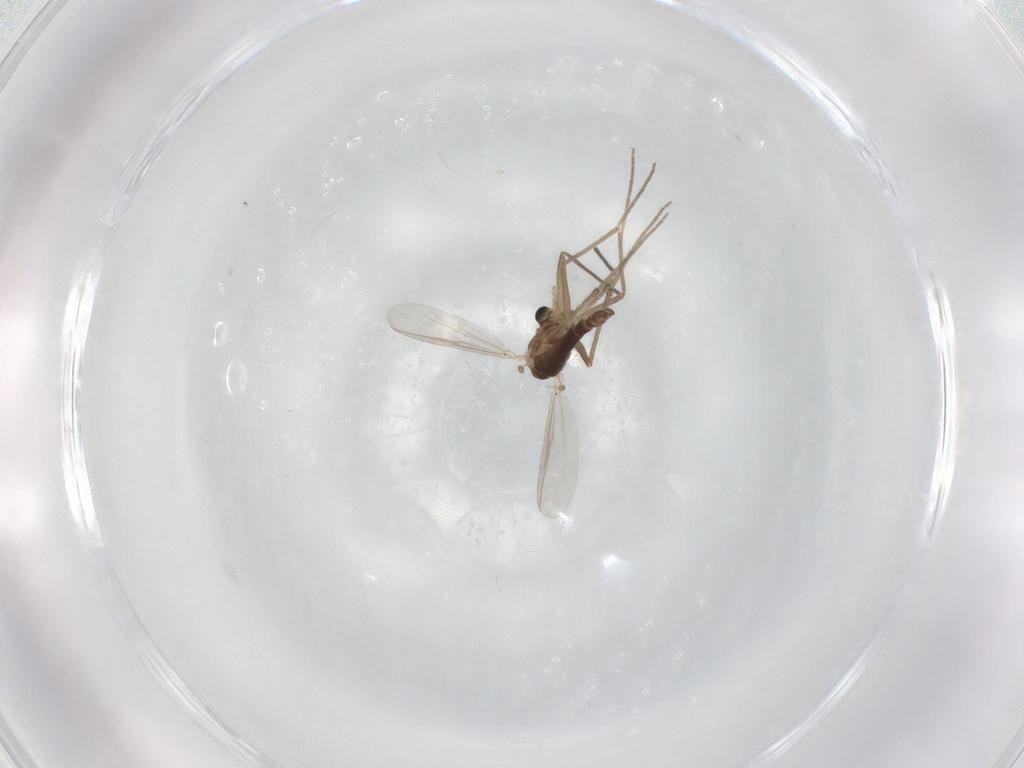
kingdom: Animalia
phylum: Arthropoda
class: Insecta
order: Diptera
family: Chironomidae
